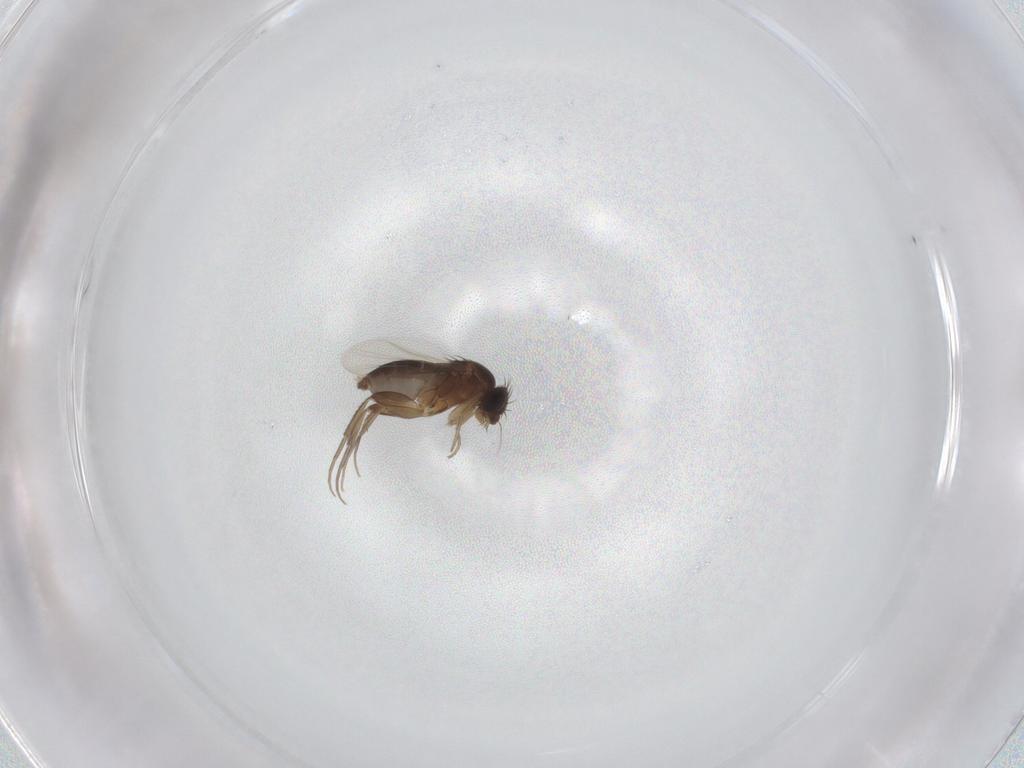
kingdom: Animalia
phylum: Arthropoda
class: Insecta
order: Diptera
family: Phoridae
